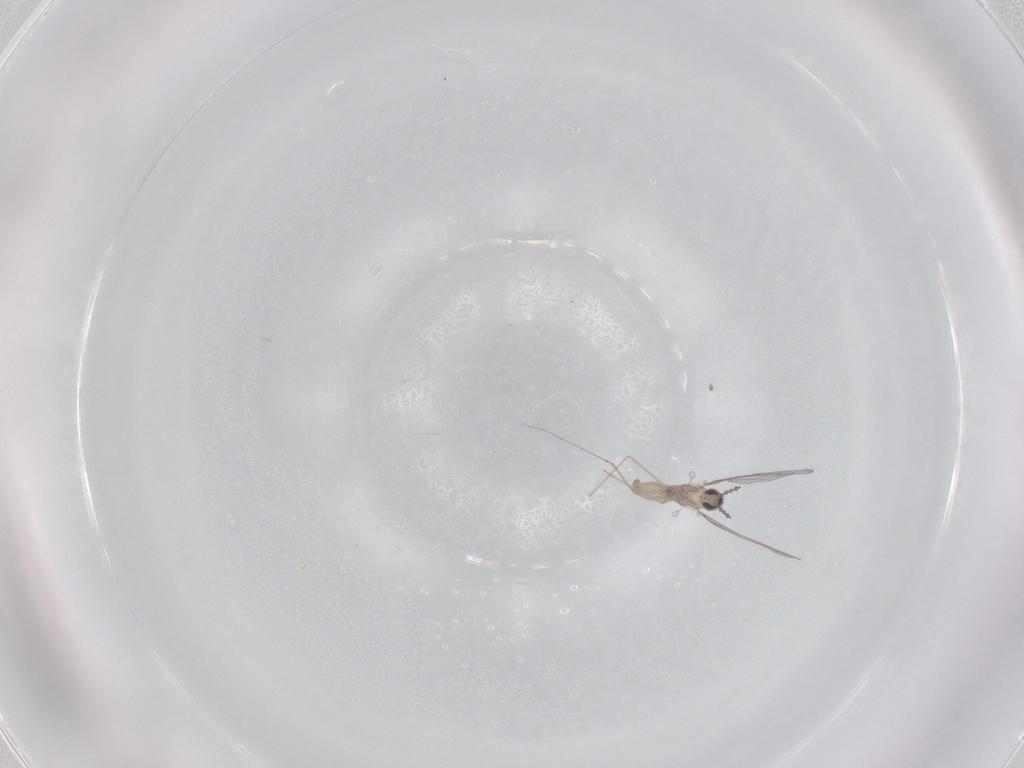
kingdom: Animalia
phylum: Arthropoda
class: Insecta
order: Diptera
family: Cecidomyiidae
